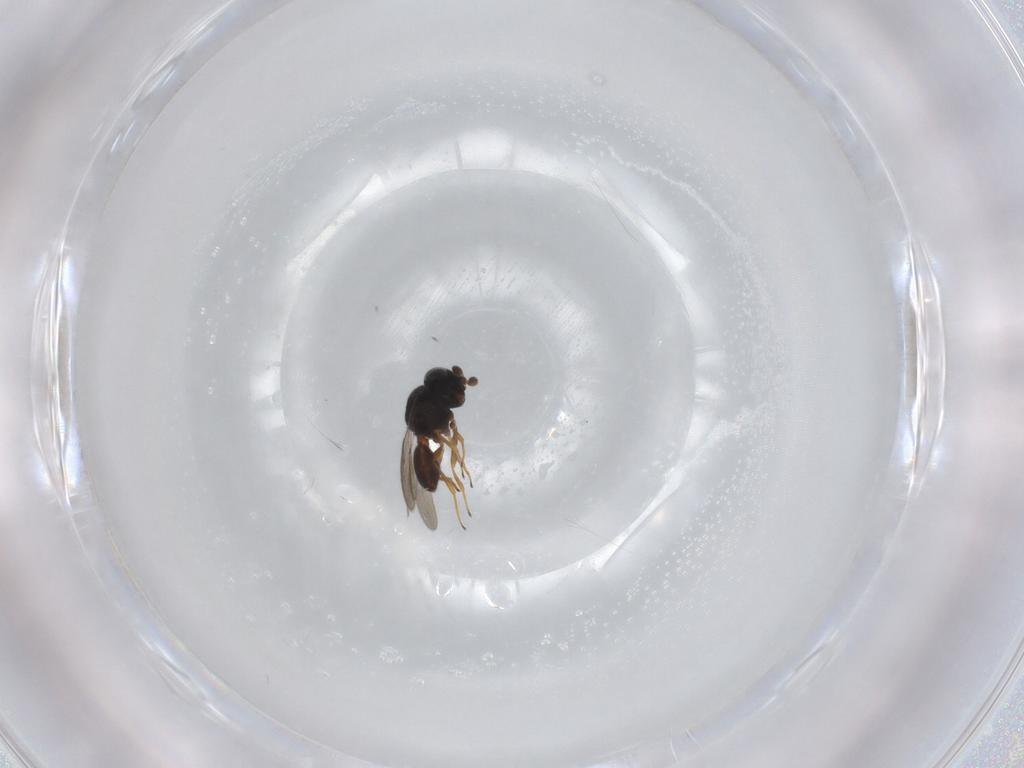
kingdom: Animalia
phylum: Arthropoda
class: Insecta
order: Hymenoptera
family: Scelionidae
